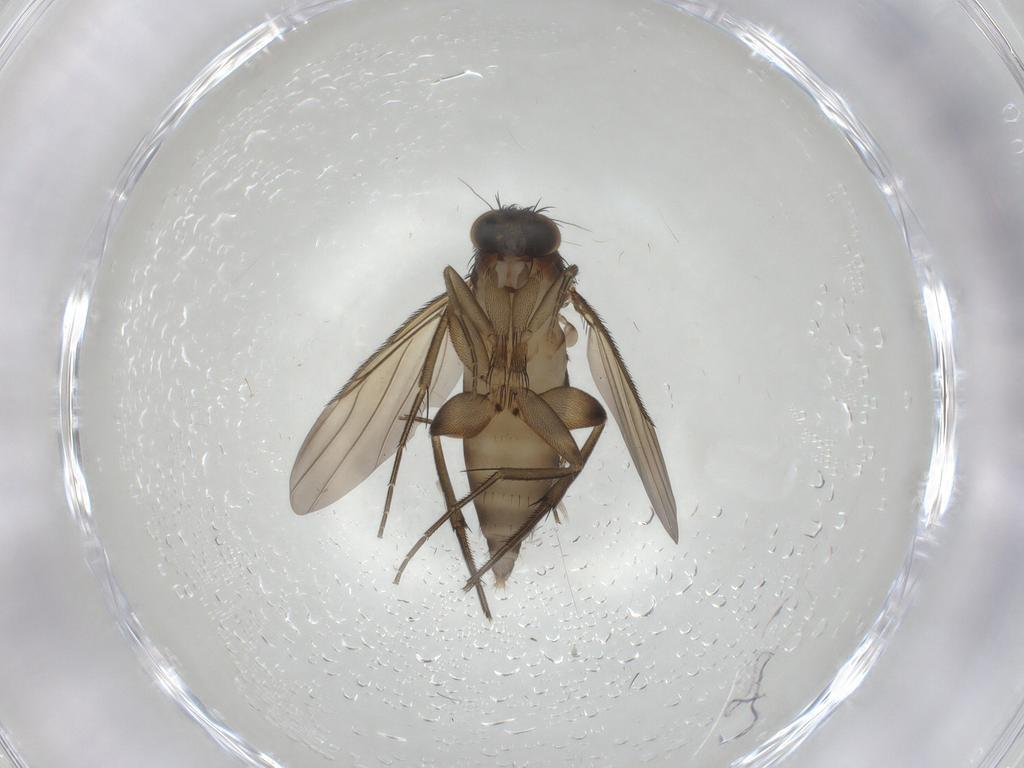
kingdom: Animalia
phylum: Arthropoda
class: Insecta
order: Diptera
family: Phoridae
